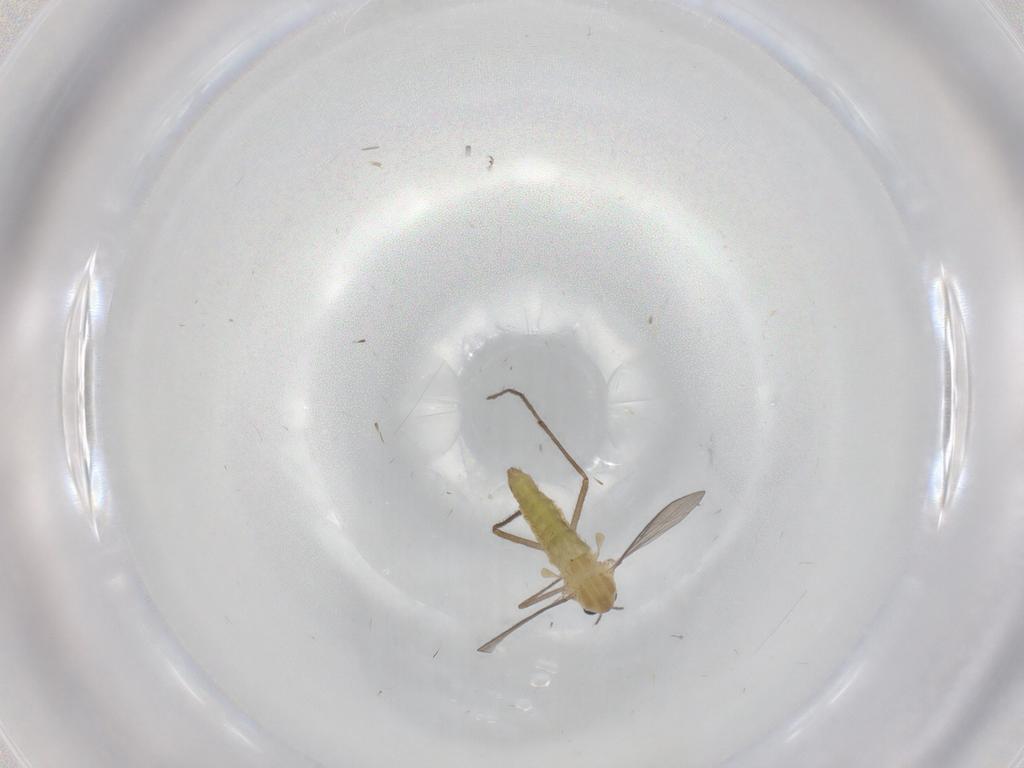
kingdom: Animalia
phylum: Arthropoda
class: Insecta
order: Diptera
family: Chironomidae
